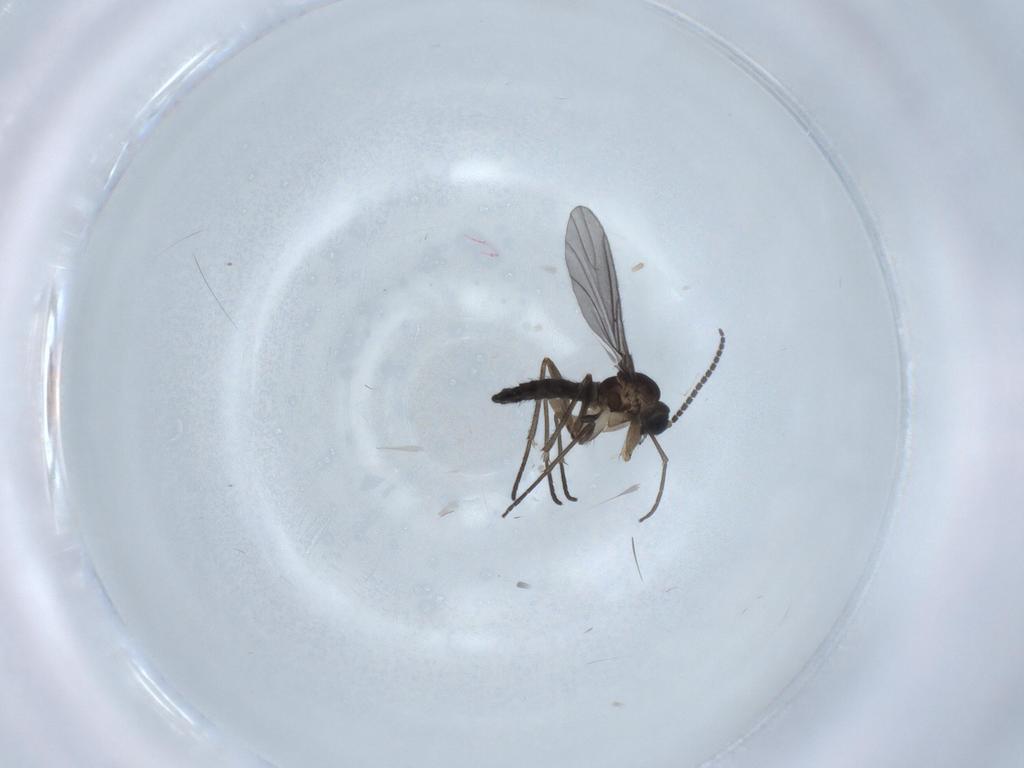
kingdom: Animalia
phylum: Arthropoda
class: Insecta
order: Diptera
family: Sciaridae
